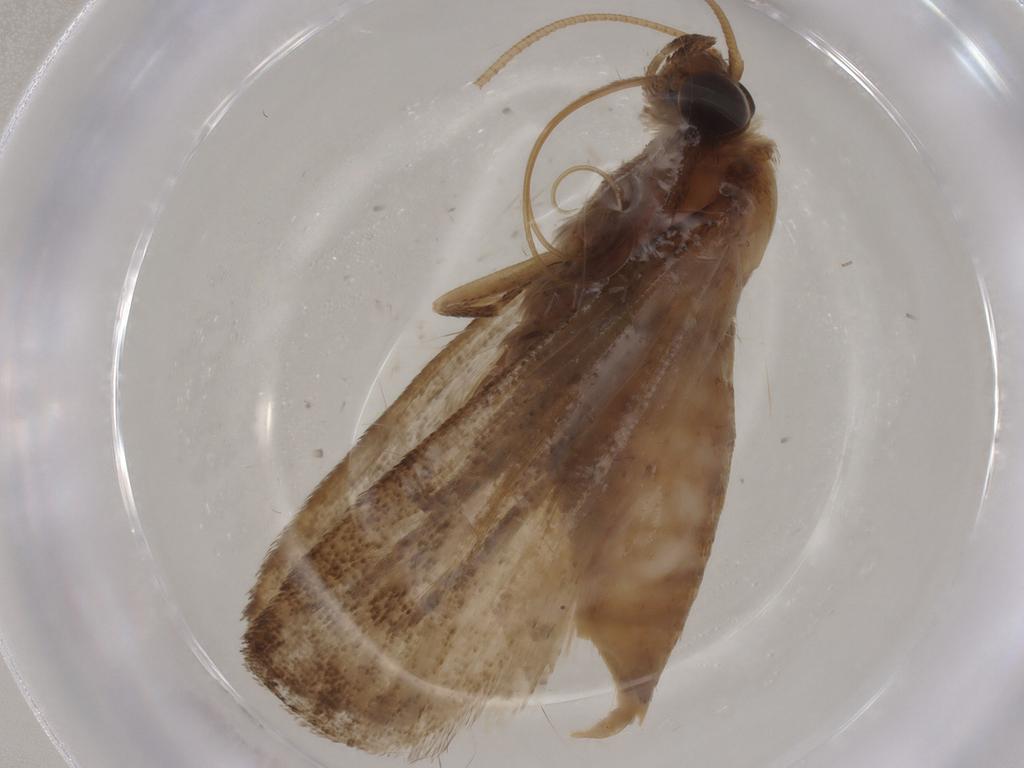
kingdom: Animalia
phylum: Arthropoda
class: Insecta
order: Lepidoptera
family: Pyralidae
